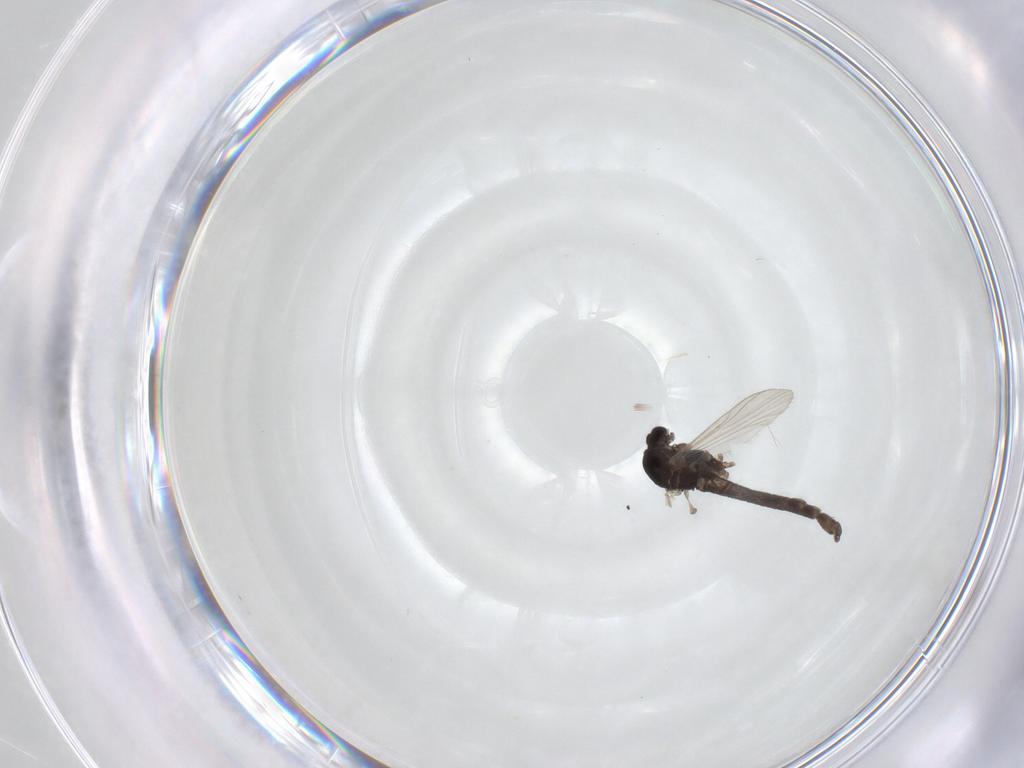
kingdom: Animalia
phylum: Arthropoda
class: Insecta
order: Diptera
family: Chironomidae
